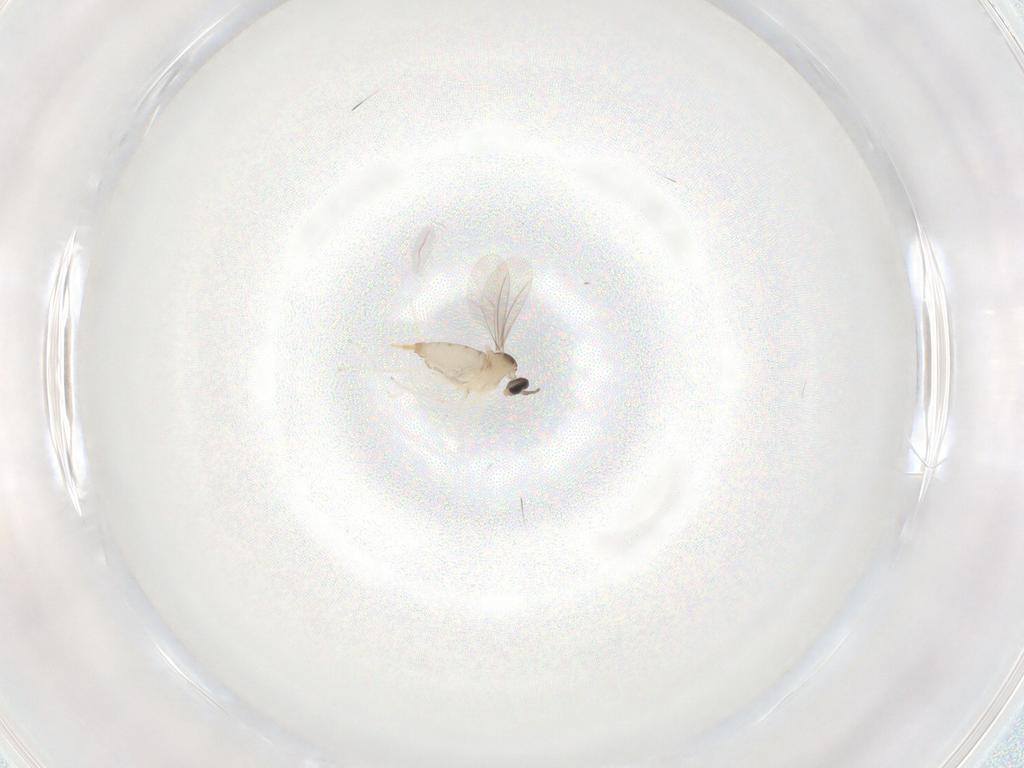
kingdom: Animalia
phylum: Arthropoda
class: Insecta
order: Diptera
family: Cecidomyiidae
